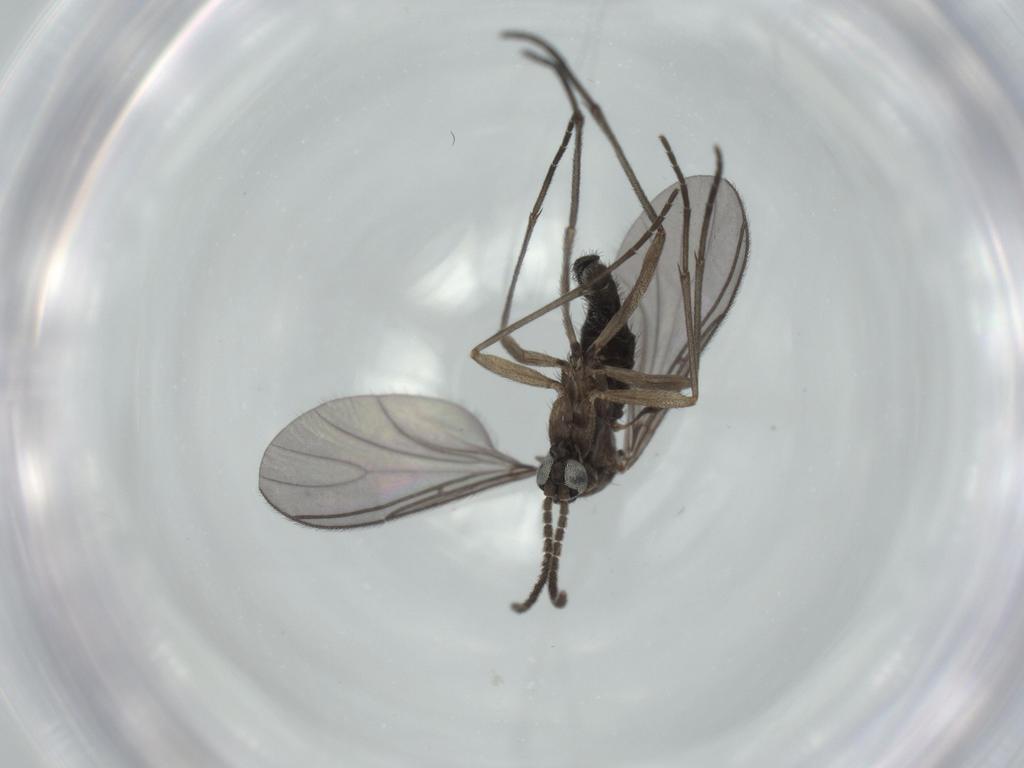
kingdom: Animalia
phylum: Arthropoda
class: Insecta
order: Diptera
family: Sciaridae
